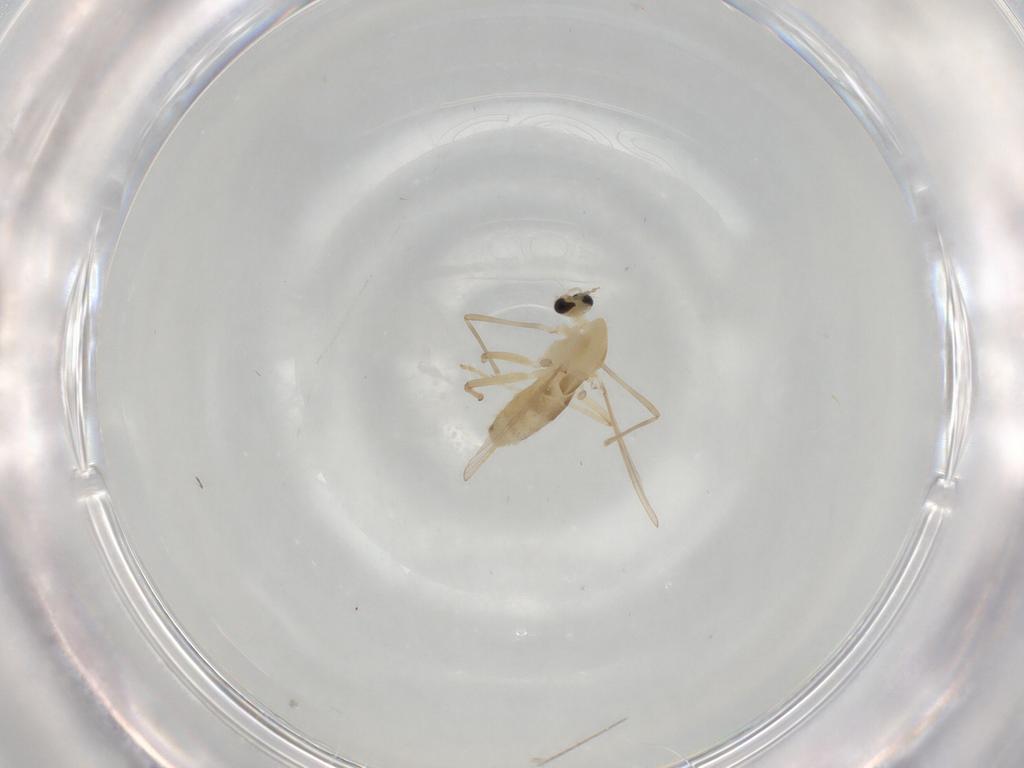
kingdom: Animalia
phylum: Arthropoda
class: Insecta
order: Diptera
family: Chironomidae
